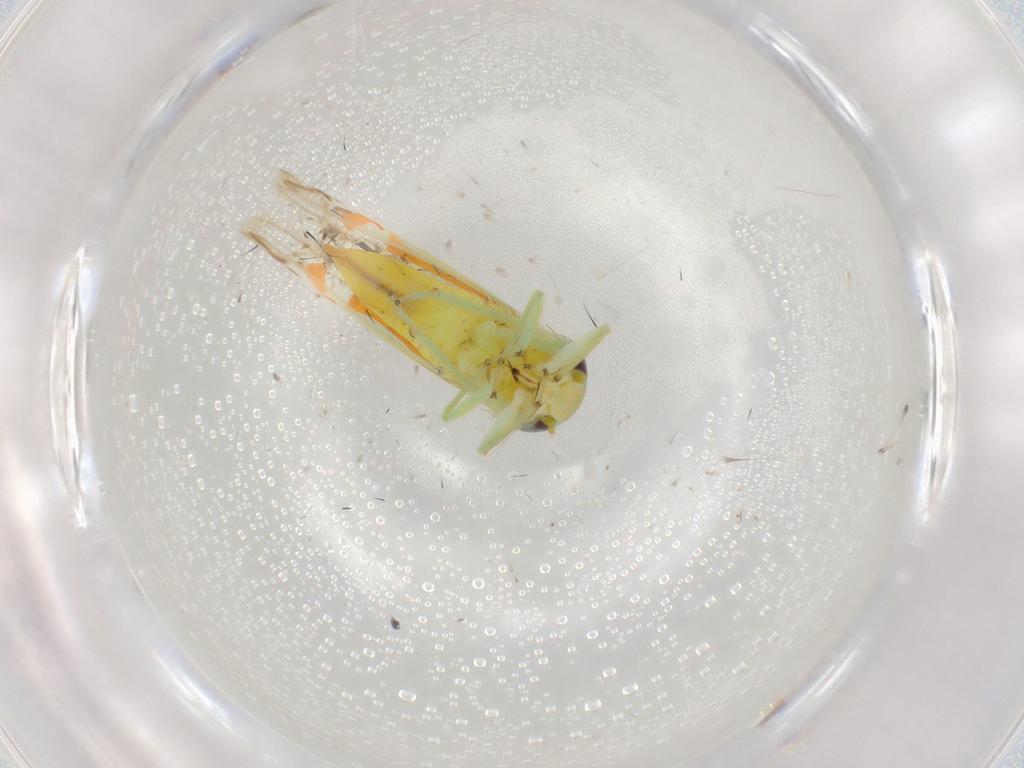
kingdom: Animalia
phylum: Arthropoda
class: Insecta
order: Hemiptera
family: Cicadellidae
